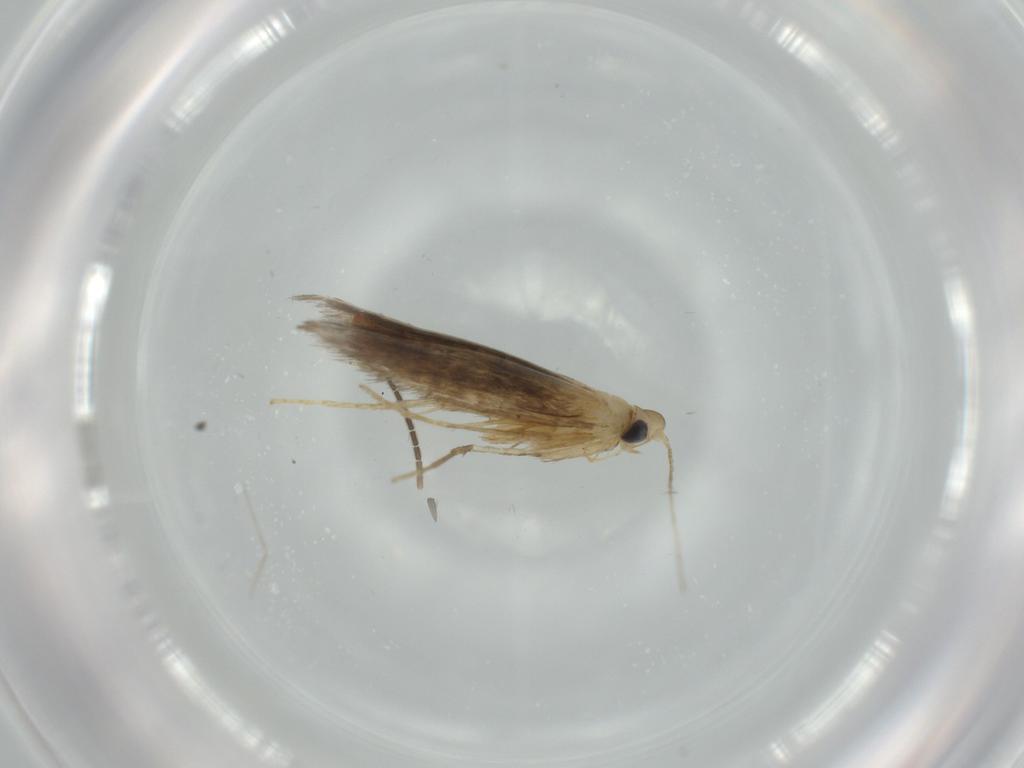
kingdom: Animalia
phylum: Arthropoda
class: Insecta
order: Lepidoptera
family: Tischeriidae
